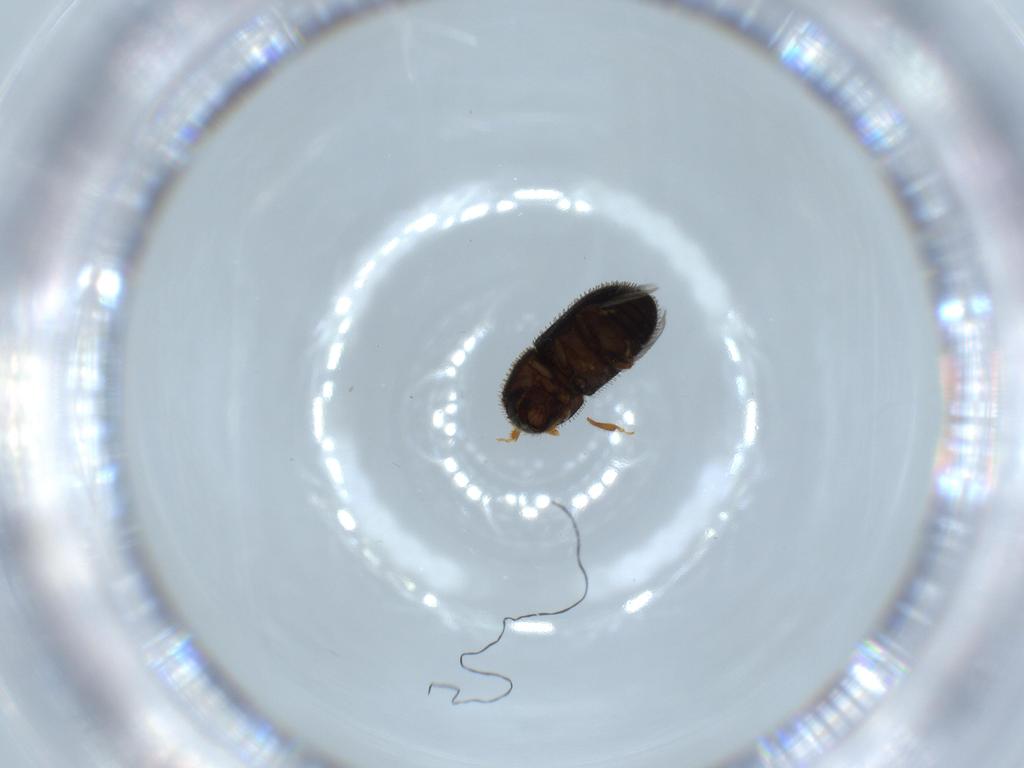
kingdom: Animalia
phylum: Arthropoda
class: Insecta
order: Coleoptera
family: Curculionidae
